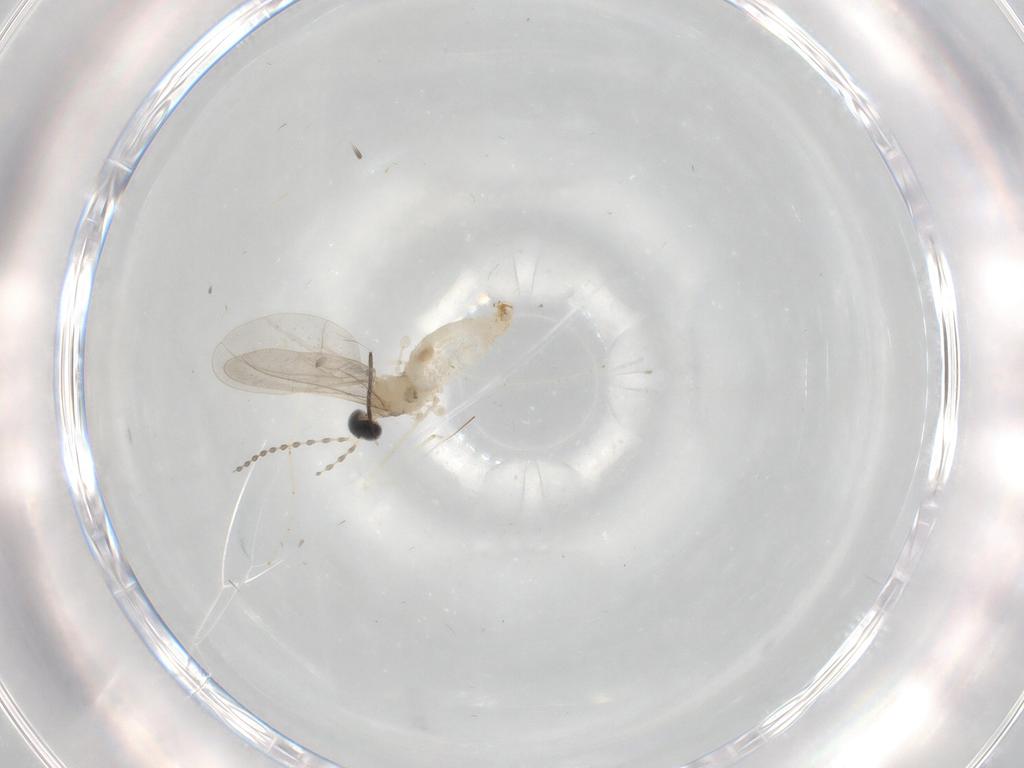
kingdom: Animalia
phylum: Arthropoda
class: Insecta
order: Diptera
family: Cecidomyiidae
